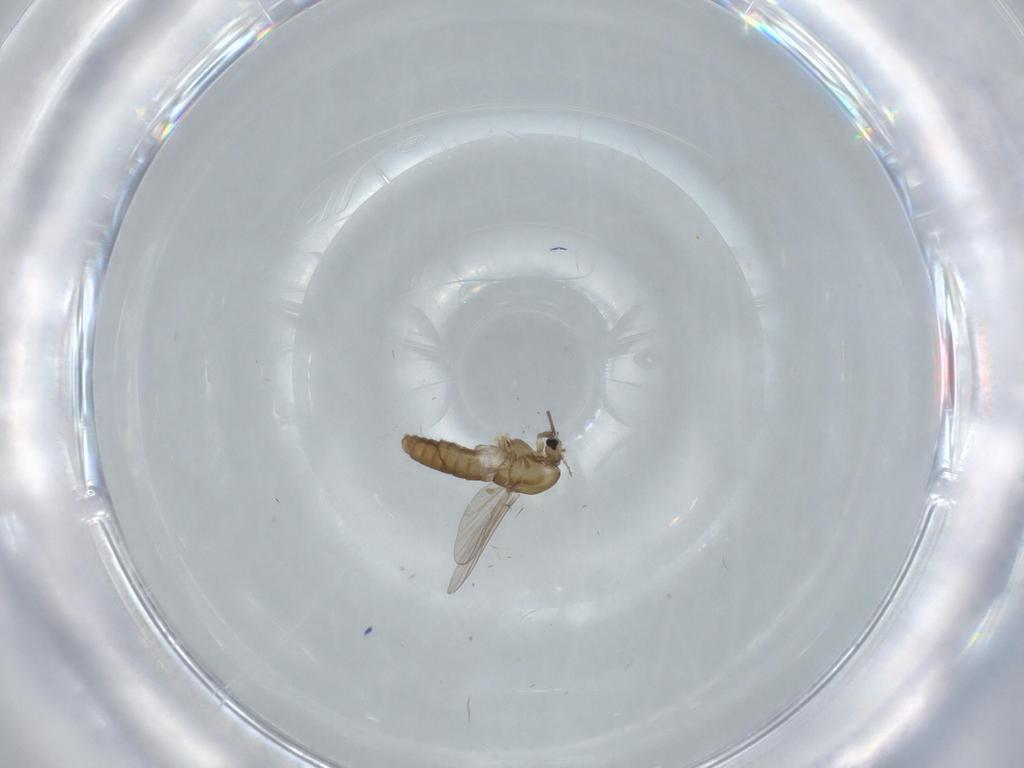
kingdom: Animalia
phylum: Arthropoda
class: Insecta
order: Diptera
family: Chironomidae
